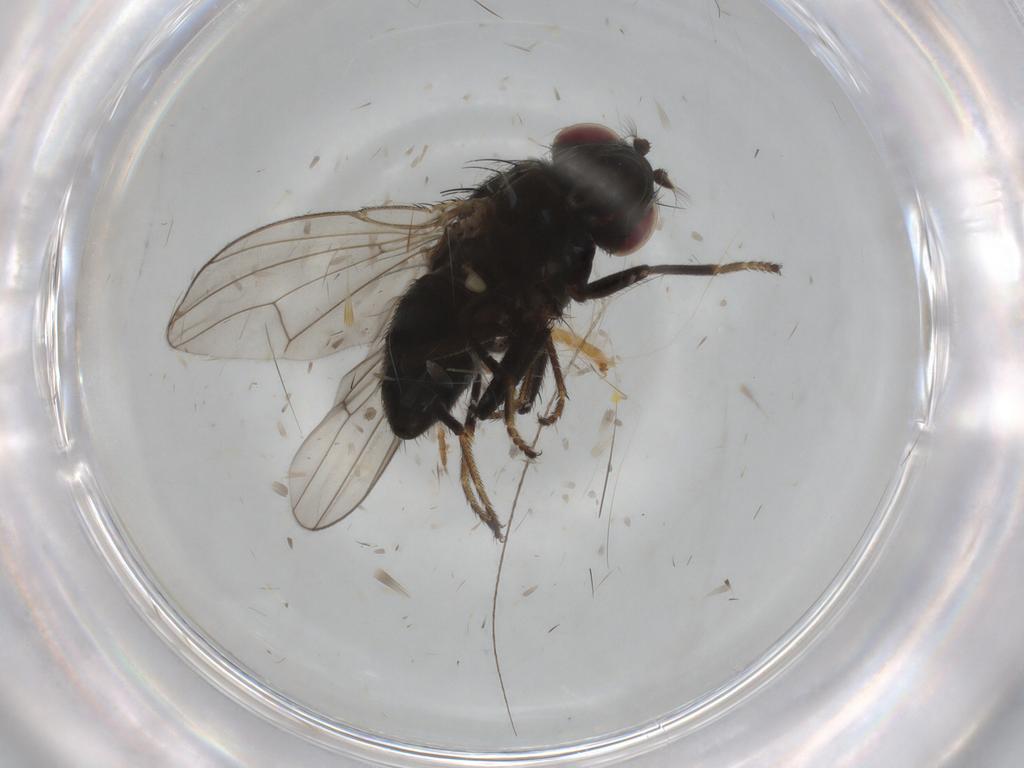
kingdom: Animalia
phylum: Arthropoda
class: Insecta
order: Diptera
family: Ephydridae
